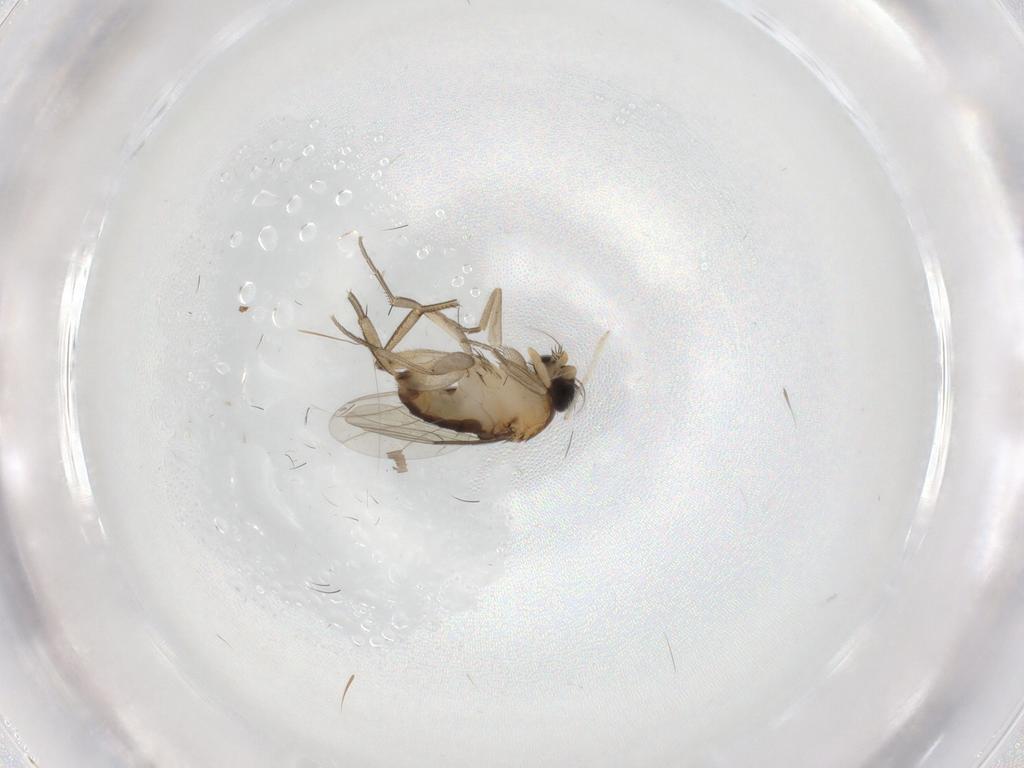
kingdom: Animalia
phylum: Arthropoda
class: Insecta
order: Diptera
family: Phoridae
